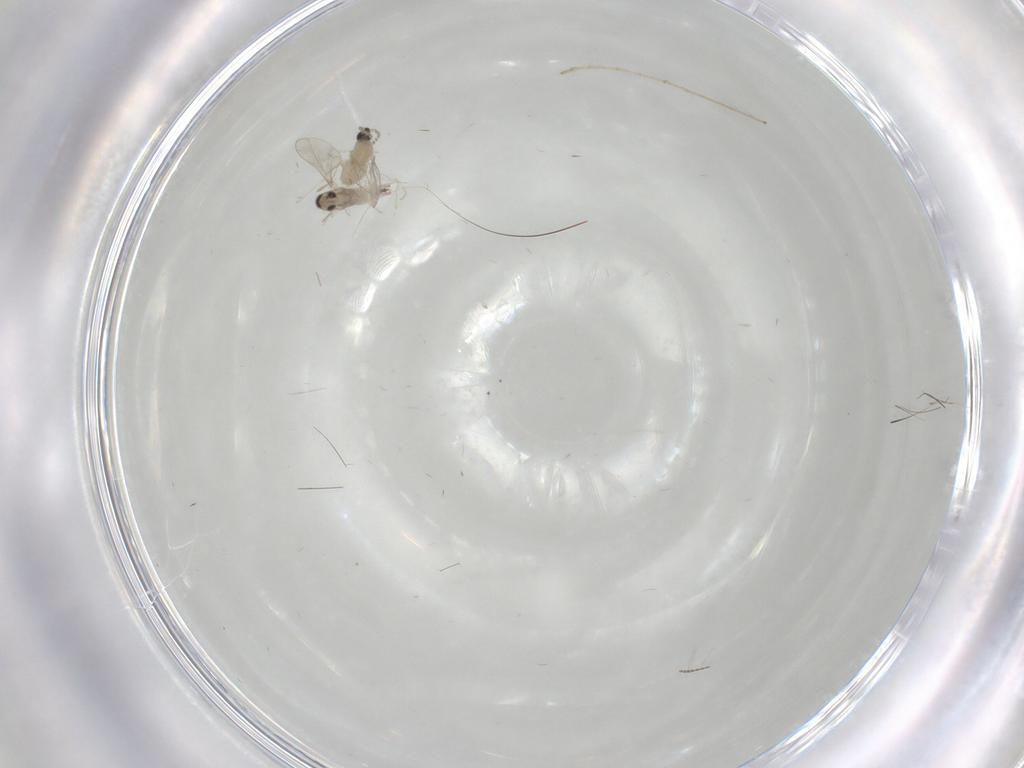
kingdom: Animalia
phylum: Arthropoda
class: Insecta
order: Diptera
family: Cecidomyiidae
